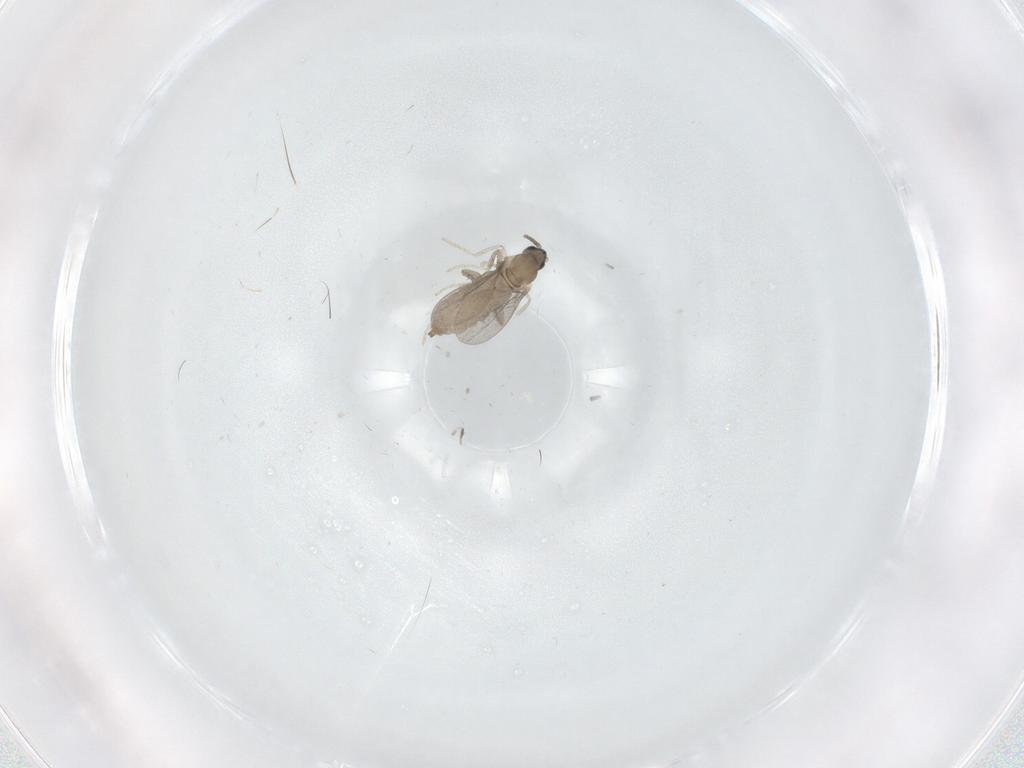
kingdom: Animalia
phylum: Arthropoda
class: Insecta
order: Diptera
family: Cecidomyiidae
